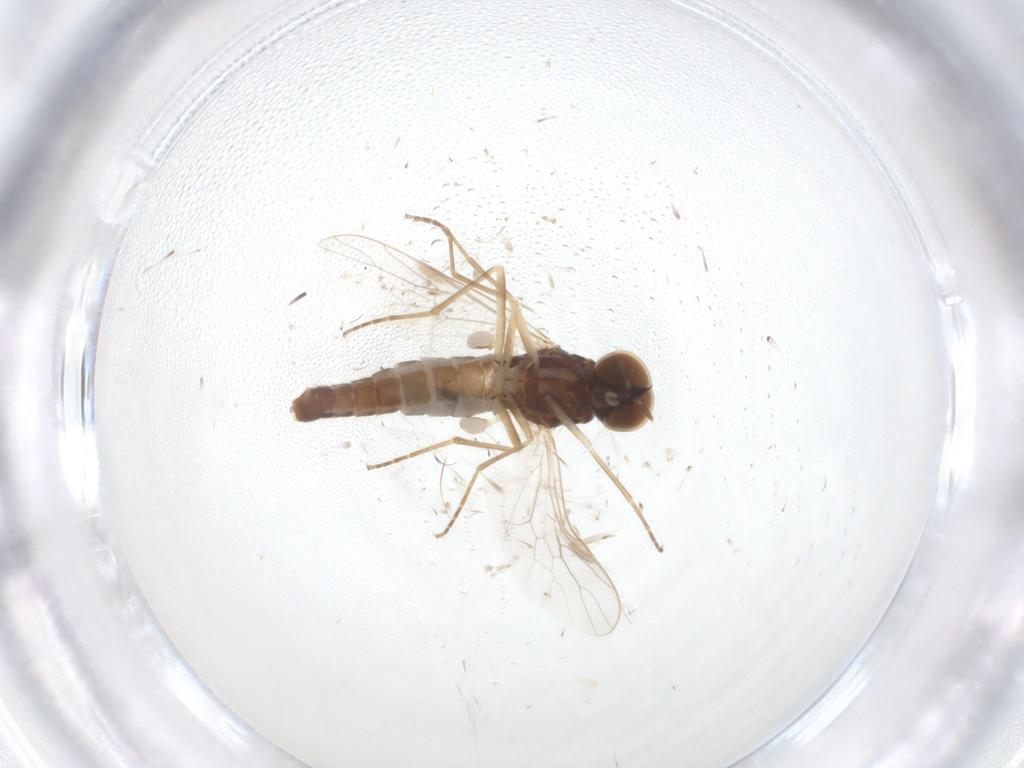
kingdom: Animalia
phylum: Arthropoda
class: Insecta
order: Diptera
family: Scenopinidae
